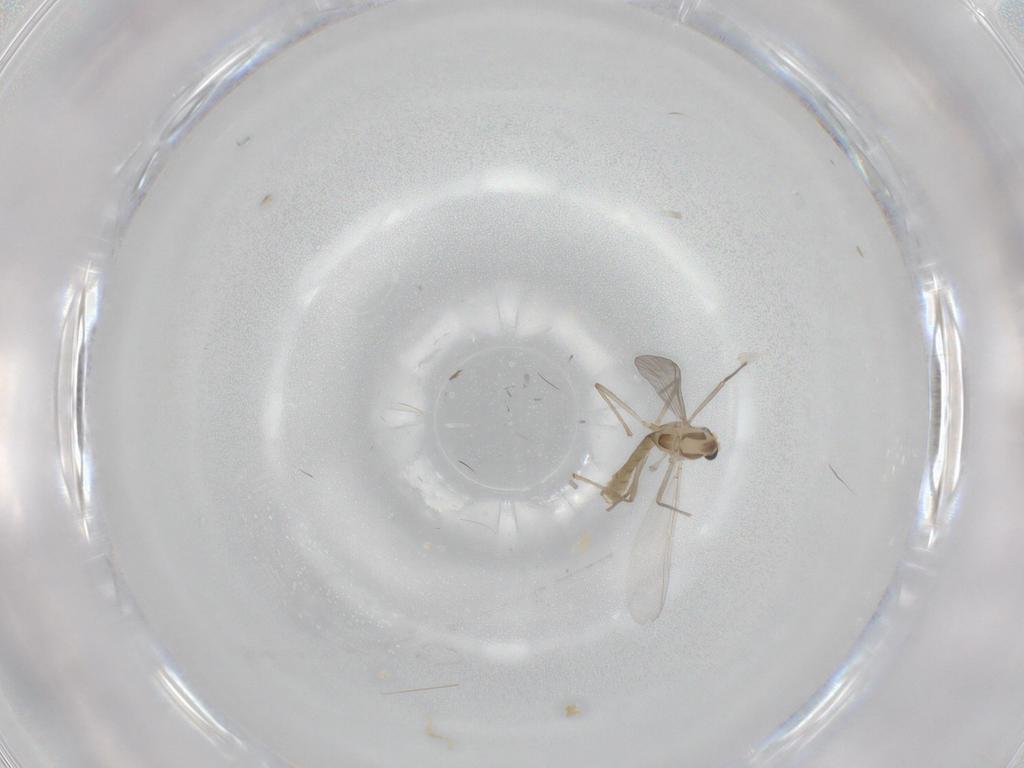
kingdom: Animalia
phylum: Arthropoda
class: Insecta
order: Diptera
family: Chironomidae
